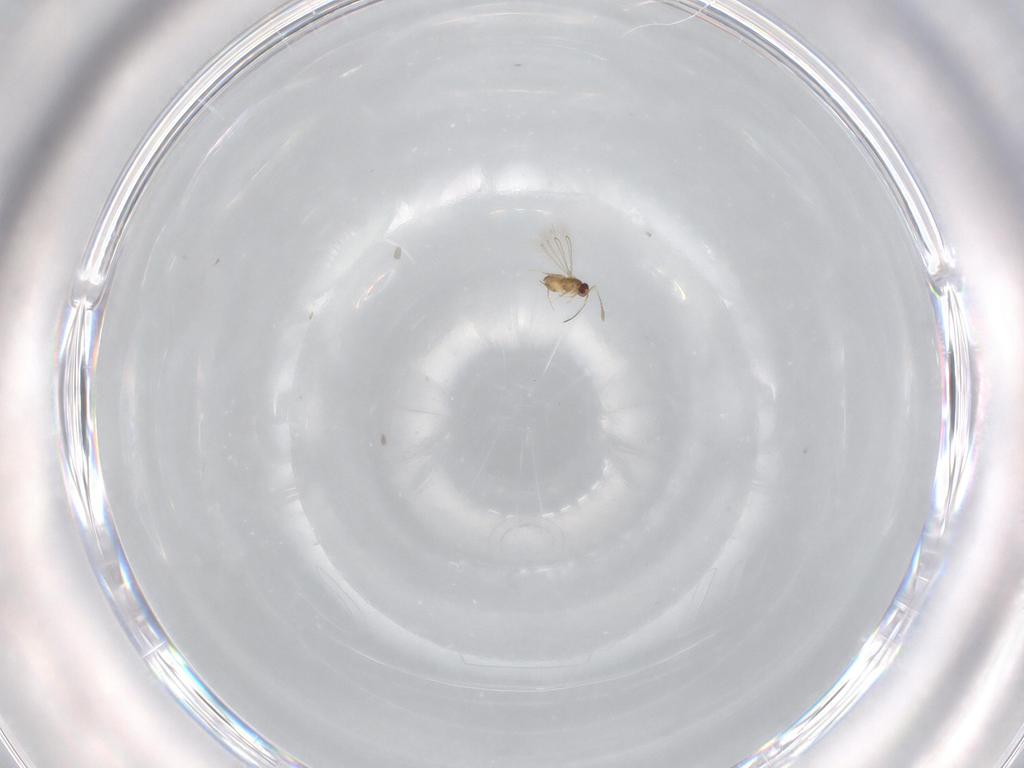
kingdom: Animalia
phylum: Arthropoda
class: Insecta
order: Hymenoptera
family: Mymaridae
